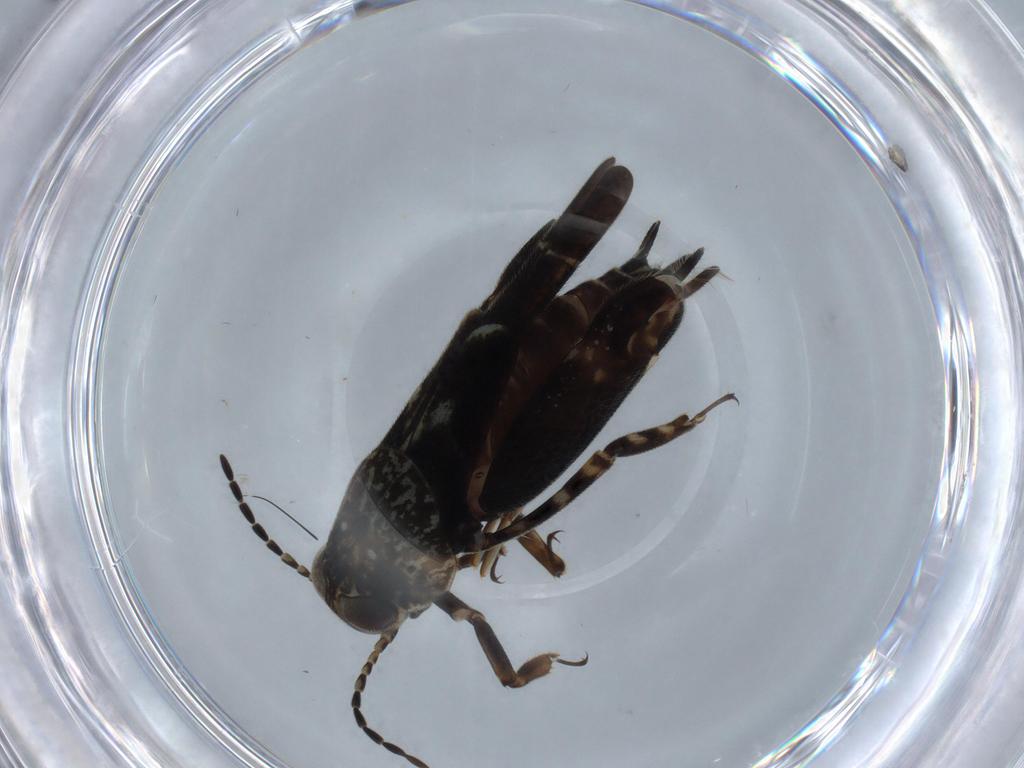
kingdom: Animalia
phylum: Arthropoda
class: Insecta
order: Orthoptera
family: Ripipterygidae
